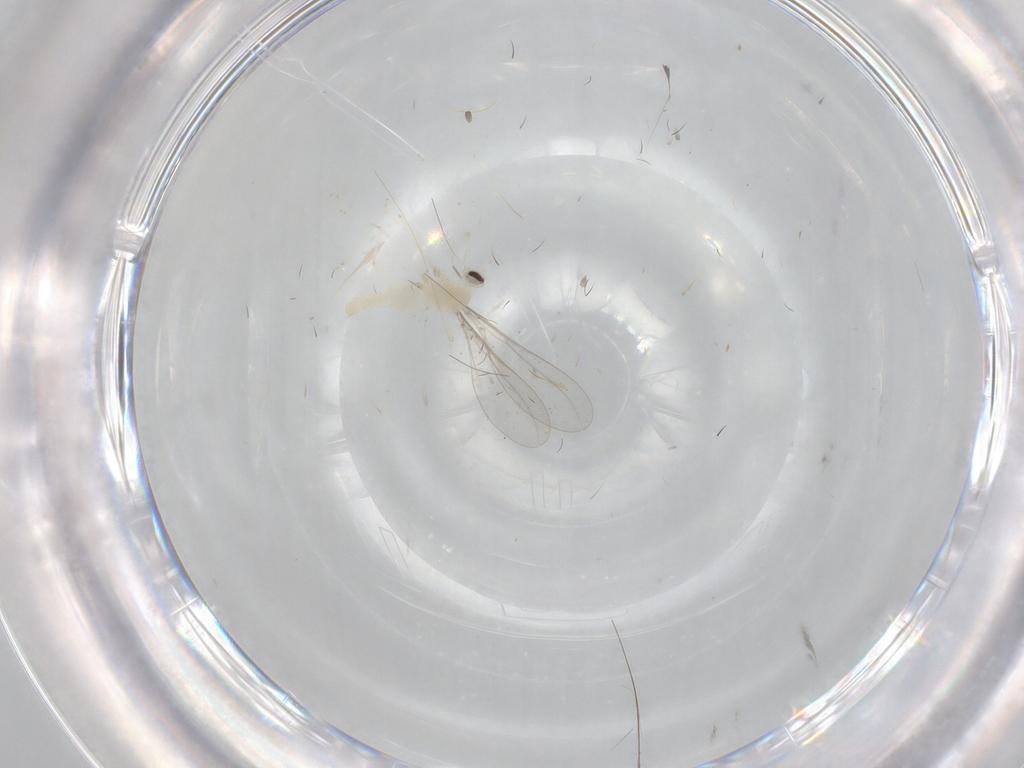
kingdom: Animalia
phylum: Arthropoda
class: Insecta
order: Diptera
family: Cecidomyiidae
